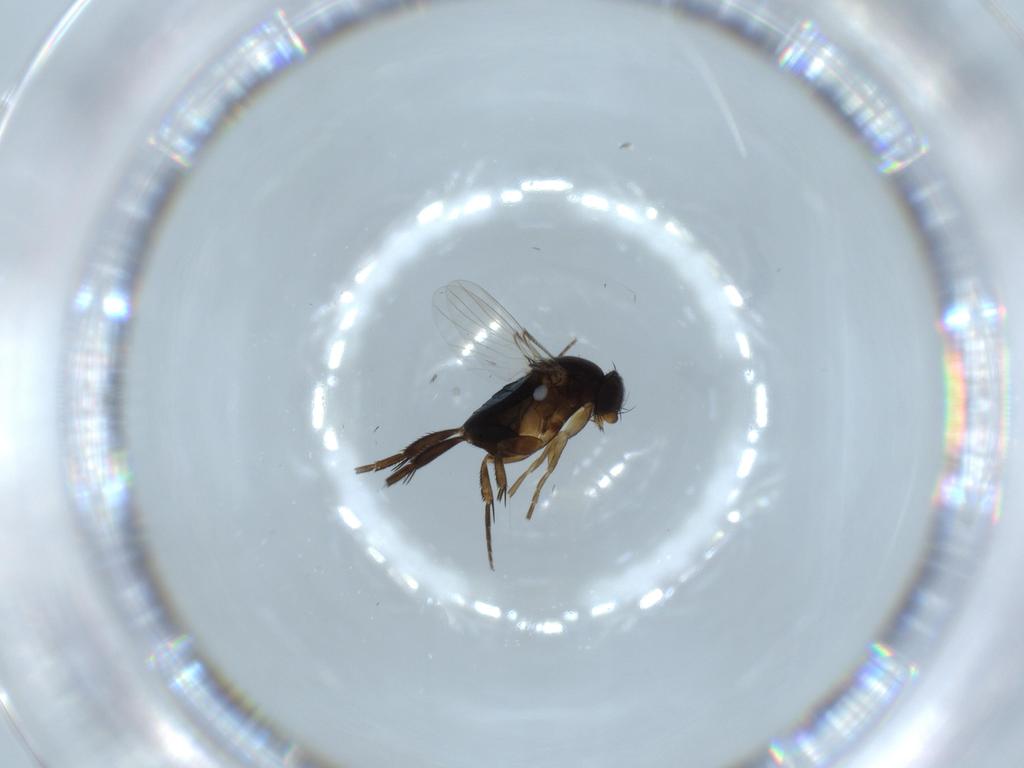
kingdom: Animalia
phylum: Arthropoda
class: Insecta
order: Diptera
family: Phoridae
